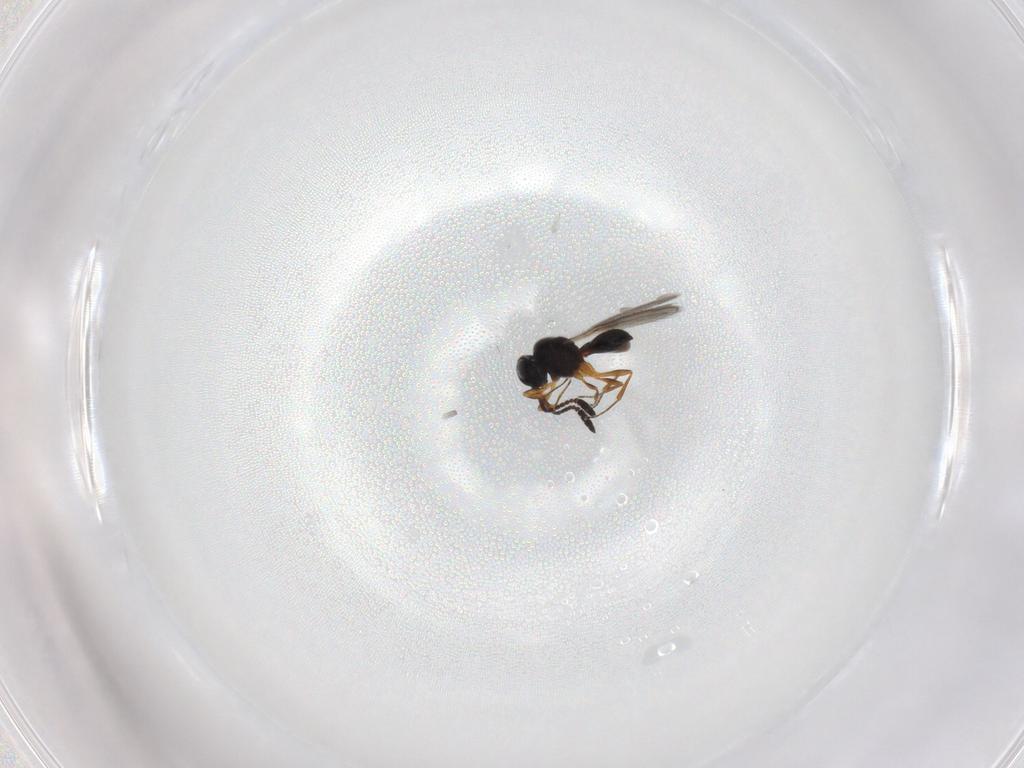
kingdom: Animalia
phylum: Arthropoda
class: Insecta
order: Hymenoptera
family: Scelionidae
